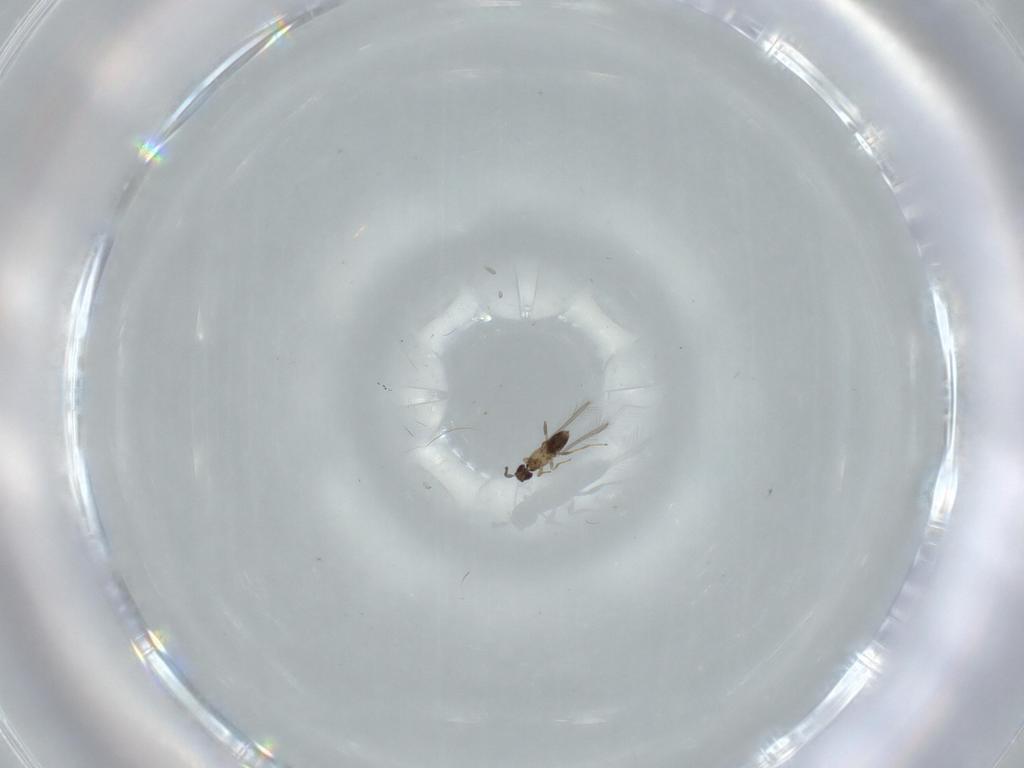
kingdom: Animalia
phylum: Arthropoda
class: Insecta
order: Hymenoptera
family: Mymaridae
